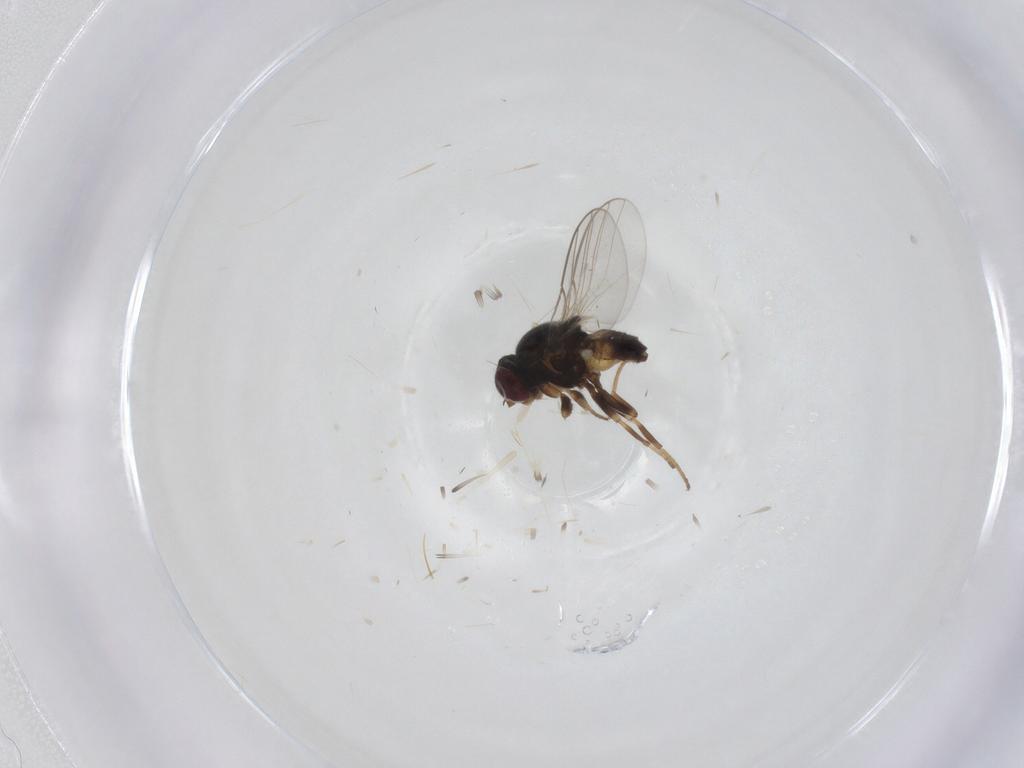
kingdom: Animalia
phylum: Arthropoda
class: Insecta
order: Diptera
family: Chloropidae
